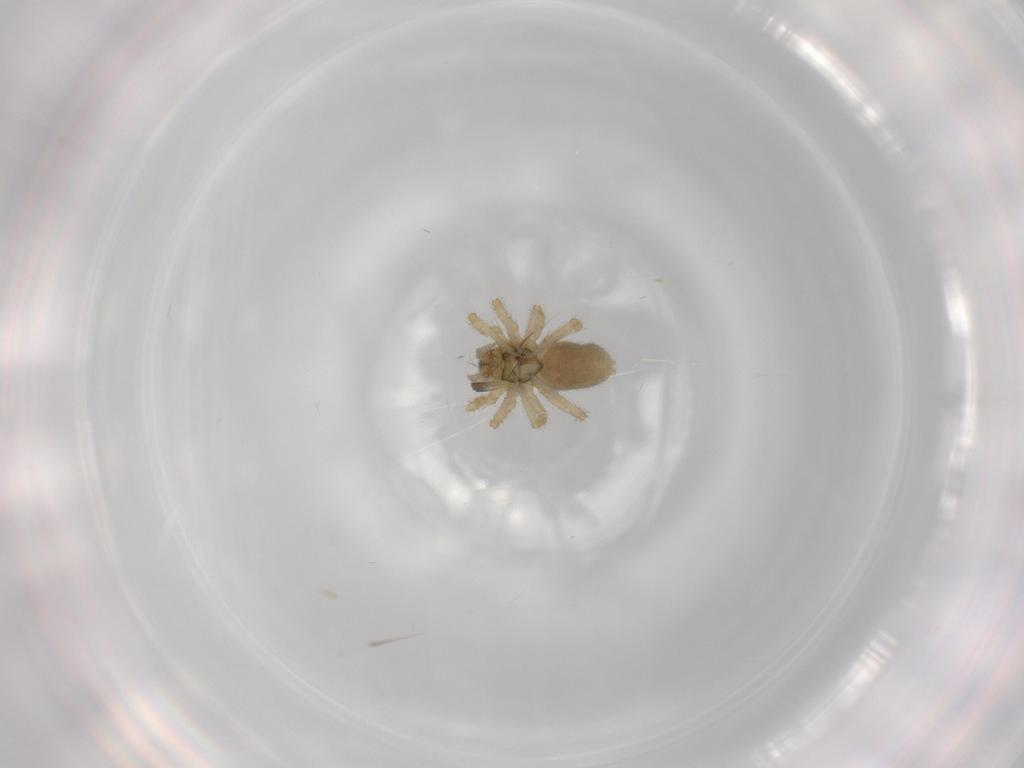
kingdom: Animalia
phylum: Arthropoda
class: Arachnida
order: Araneae
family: Linyphiidae
